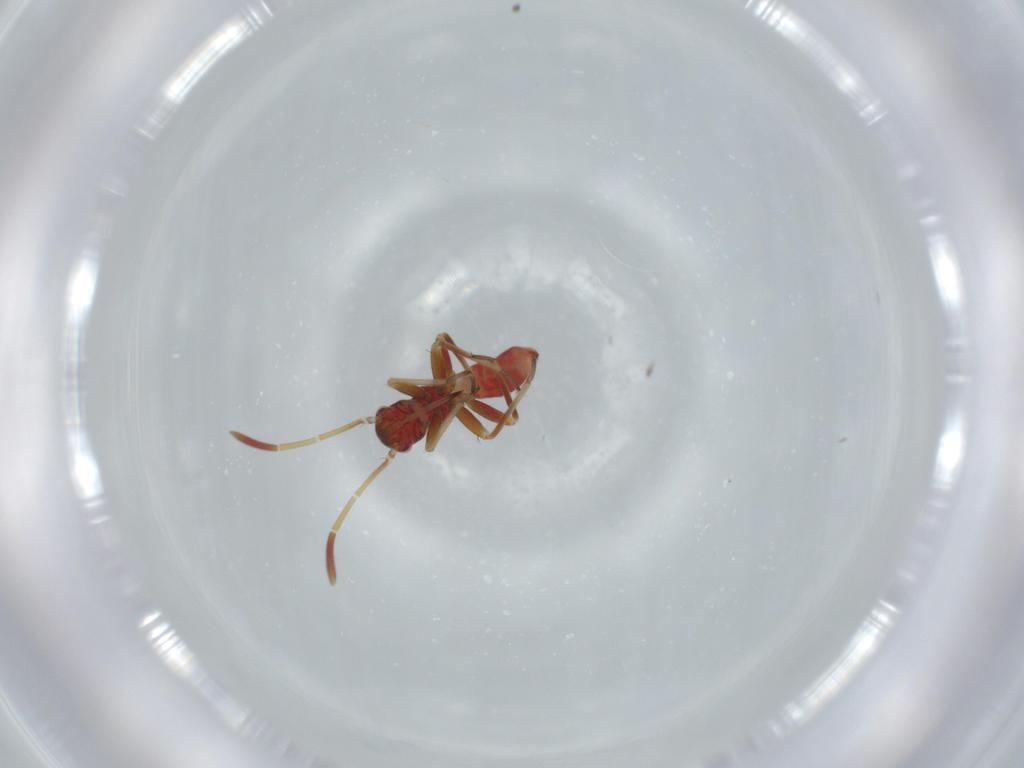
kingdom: Animalia
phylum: Arthropoda
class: Insecta
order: Hemiptera
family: Miridae
